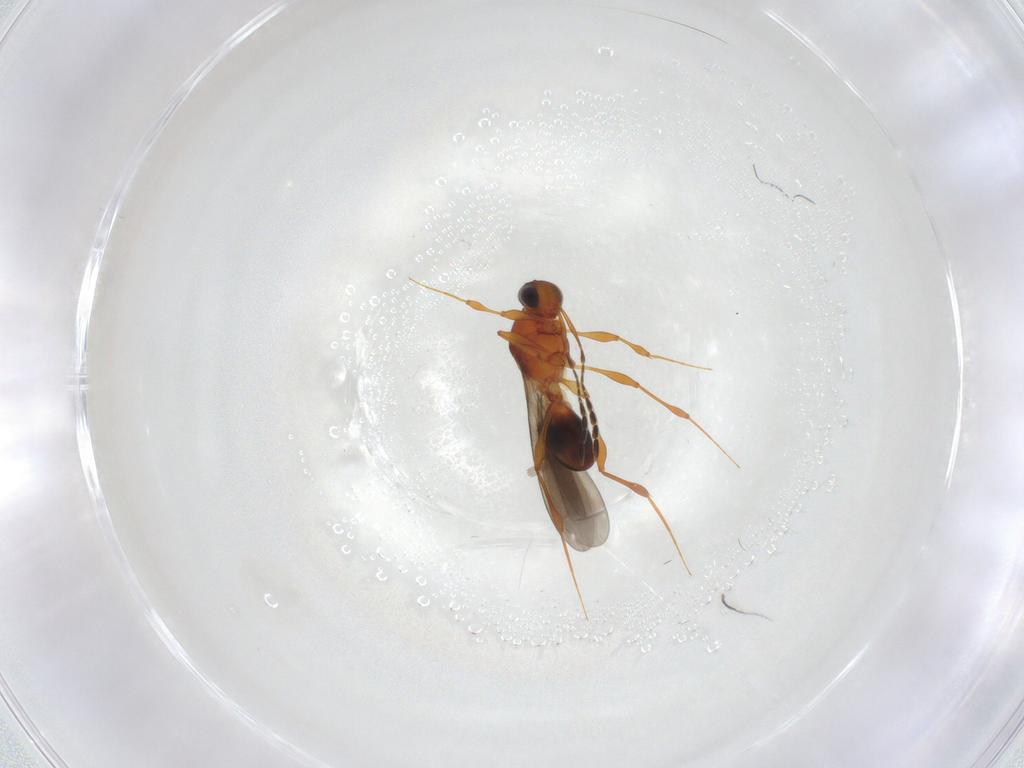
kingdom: Animalia
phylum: Arthropoda
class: Insecta
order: Hymenoptera
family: Platygastridae
